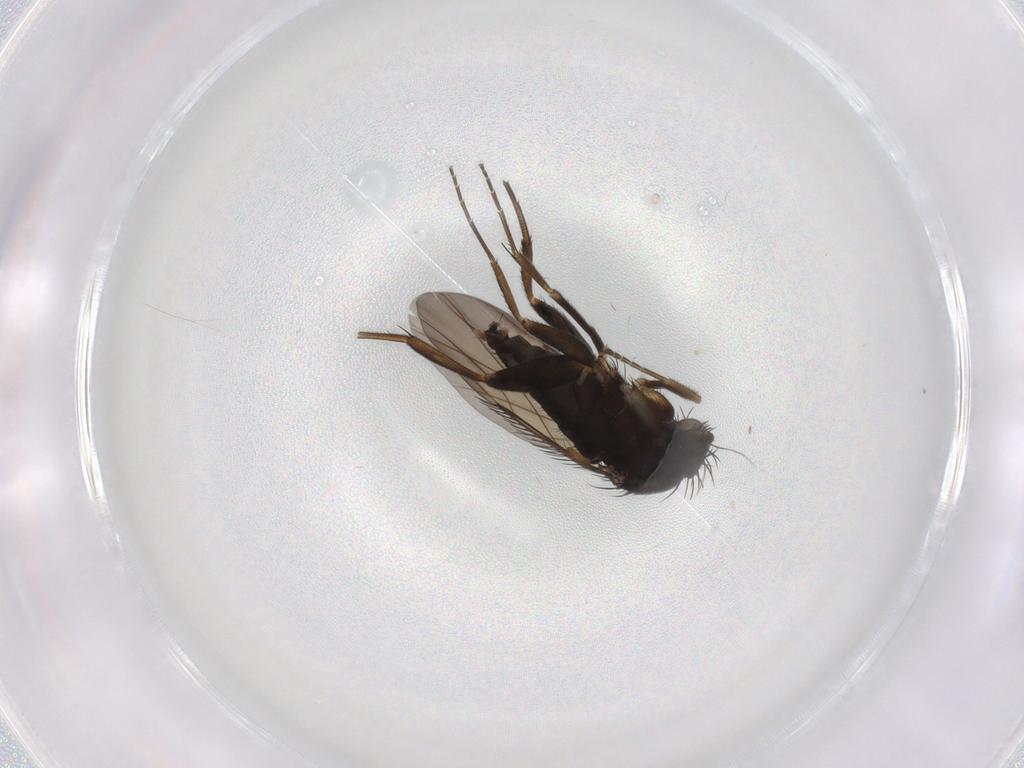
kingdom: Animalia
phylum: Arthropoda
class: Insecta
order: Diptera
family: Phoridae
